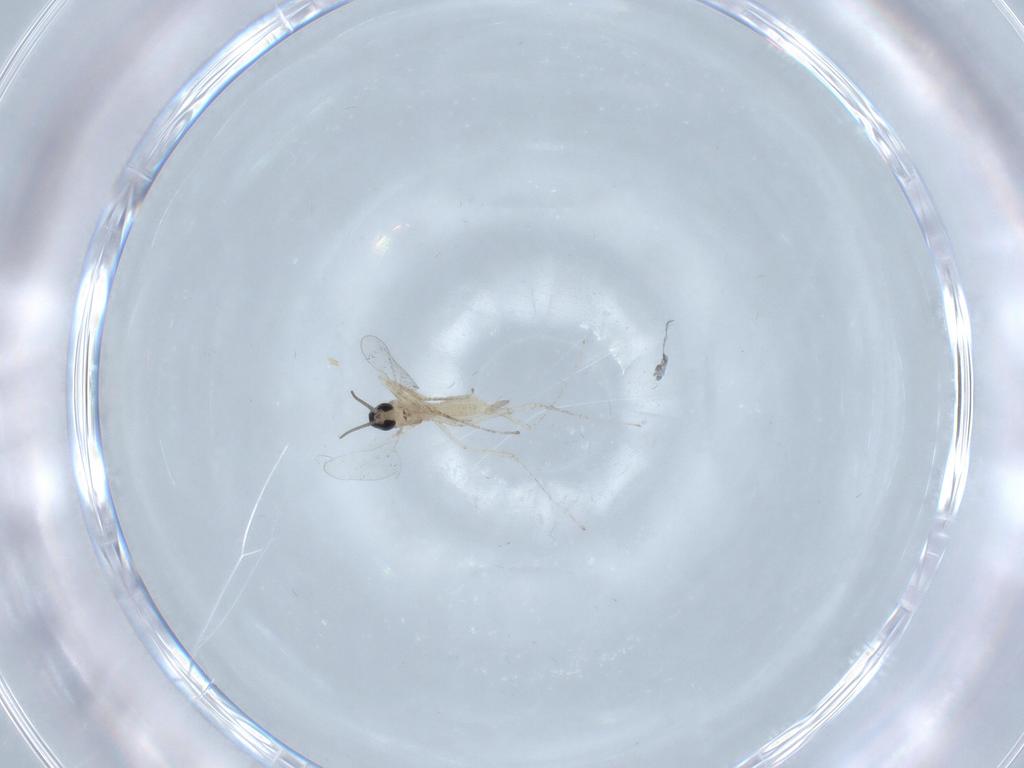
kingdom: Animalia
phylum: Arthropoda
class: Insecta
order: Diptera
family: Cecidomyiidae
